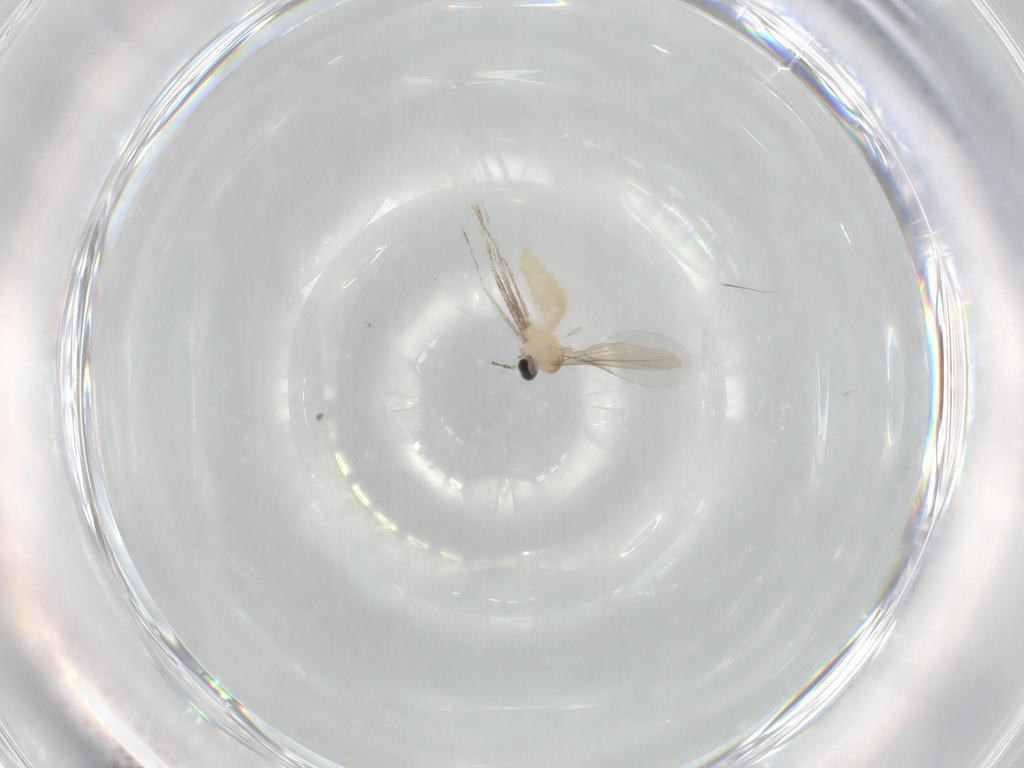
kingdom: Animalia
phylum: Arthropoda
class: Insecta
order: Diptera
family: Cecidomyiidae
